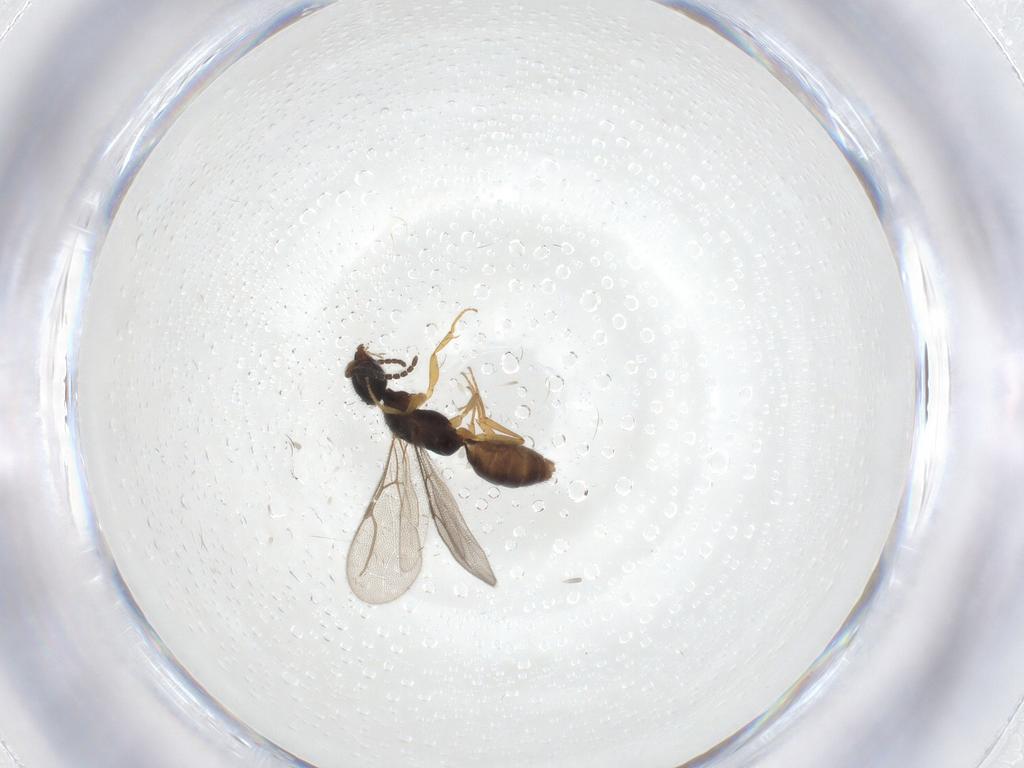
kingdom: Animalia
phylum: Arthropoda
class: Insecta
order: Hymenoptera
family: Bethylidae
